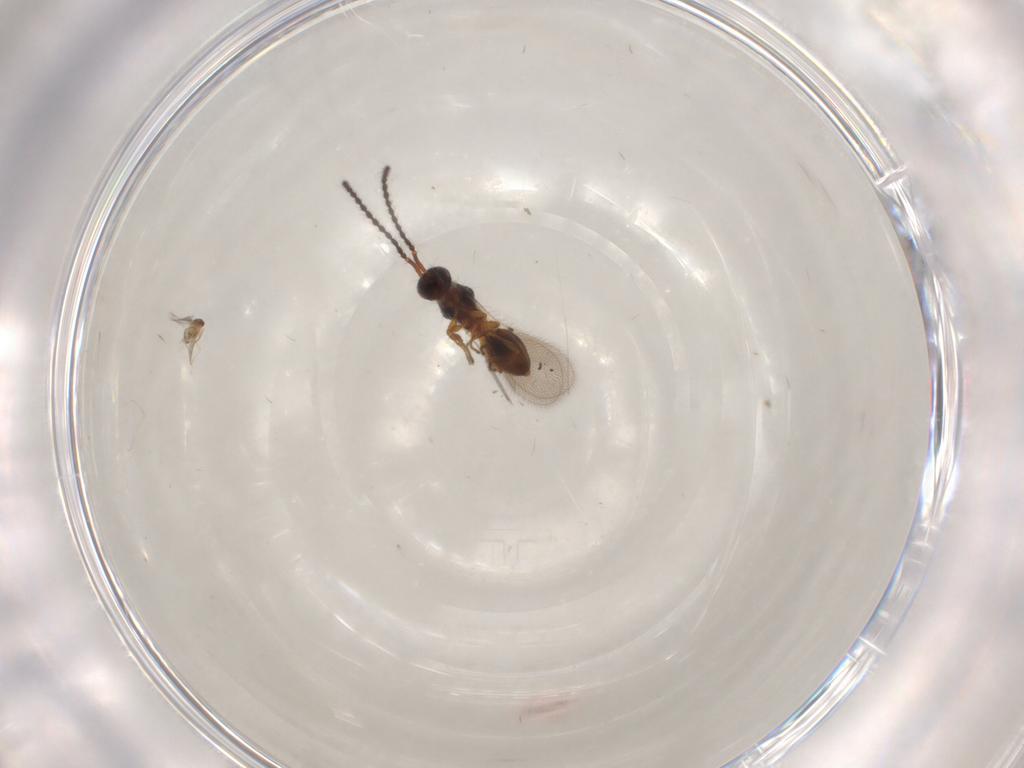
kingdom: Animalia
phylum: Arthropoda
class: Insecta
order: Hymenoptera
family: Diapriidae
